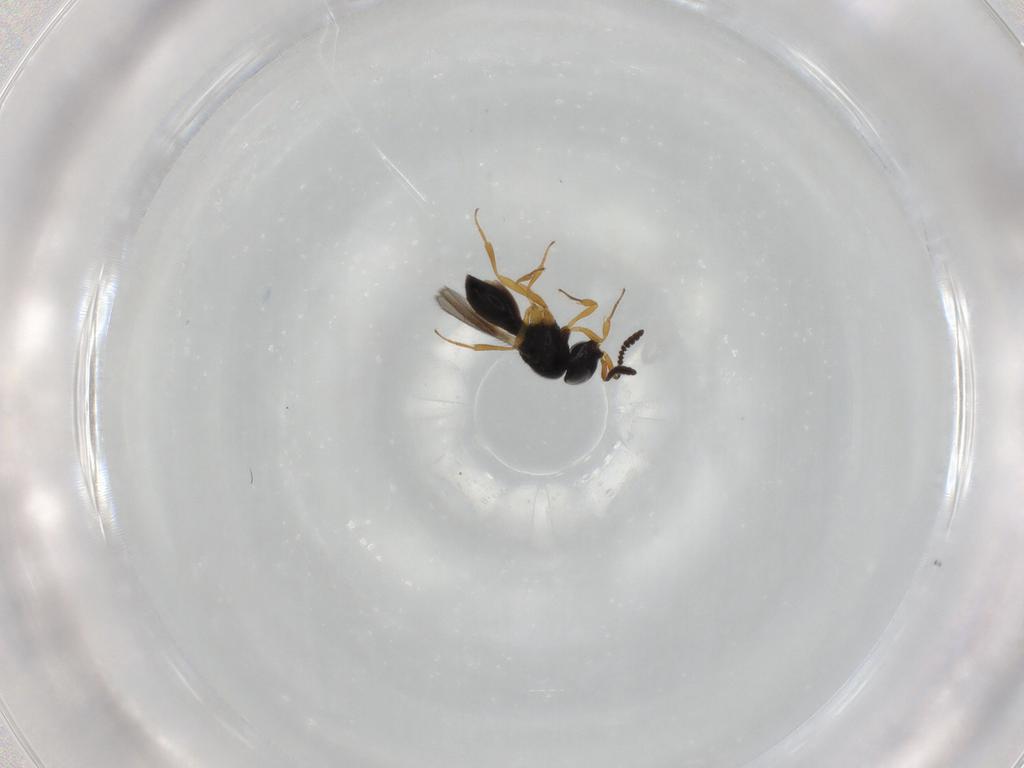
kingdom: Animalia
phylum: Arthropoda
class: Insecta
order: Hymenoptera
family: Scelionidae
